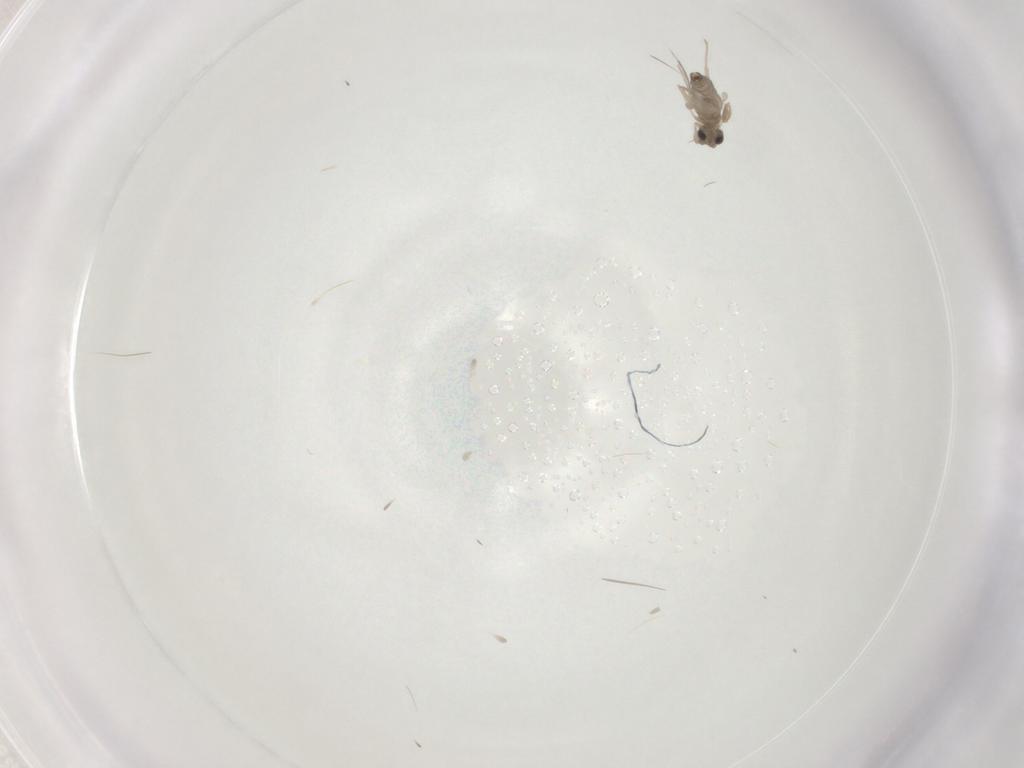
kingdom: Animalia
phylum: Arthropoda
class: Insecta
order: Diptera
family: Cecidomyiidae
